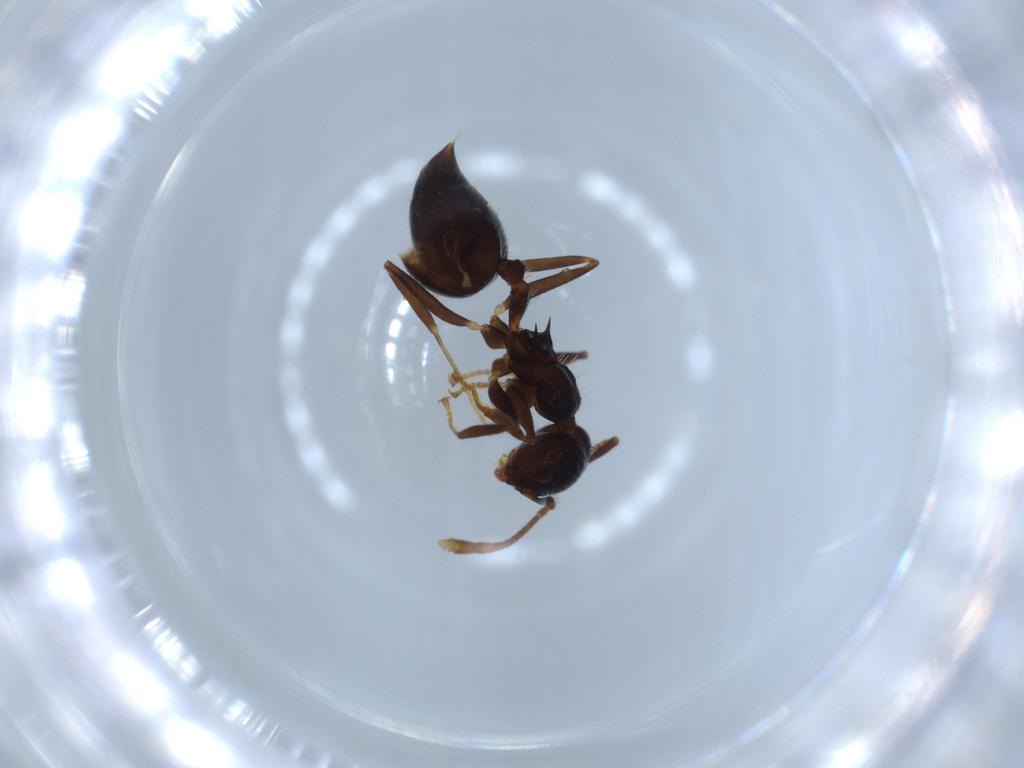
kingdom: Animalia
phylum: Arthropoda
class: Insecta
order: Hymenoptera
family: Formicidae
